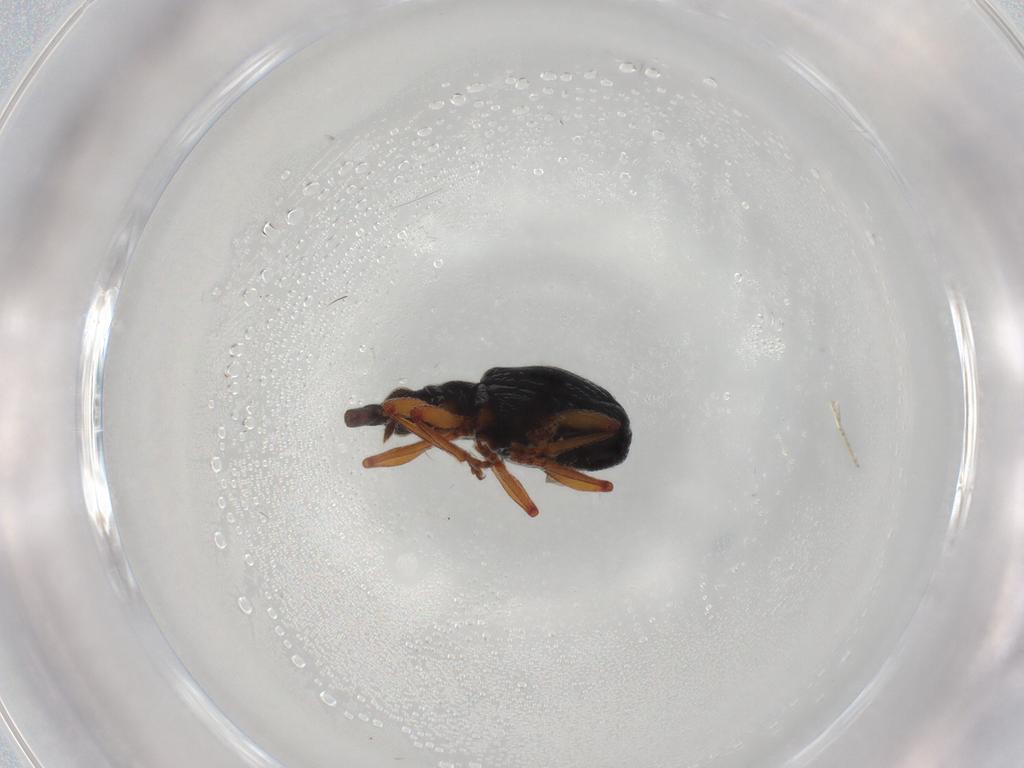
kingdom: Animalia
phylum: Arthropoda
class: Insecta
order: Coleoptera
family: Brentidae
